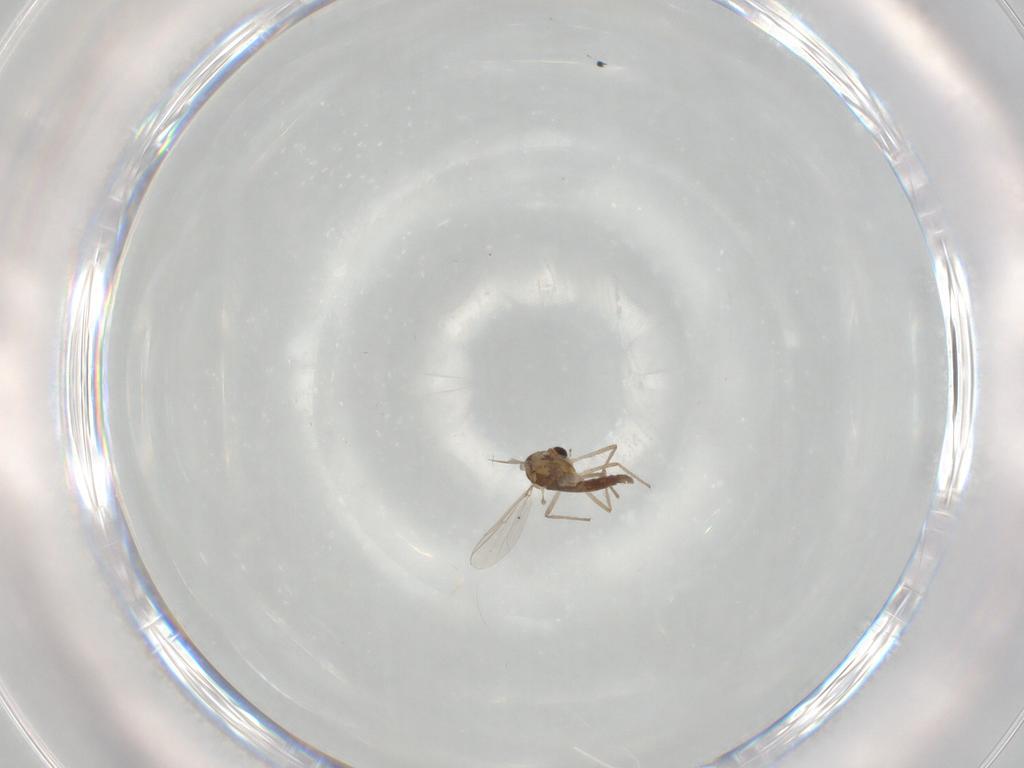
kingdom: Animalia
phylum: Arthropoda
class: Insecta
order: Diptera
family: Chironomidae
